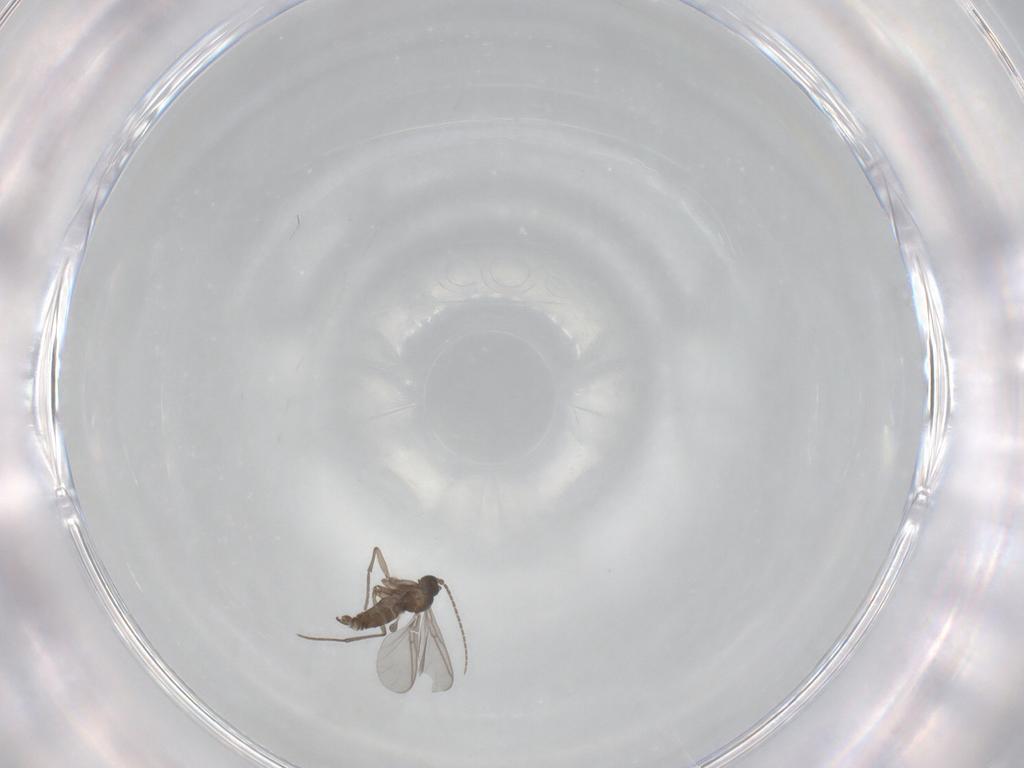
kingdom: Animalia
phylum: Arthropoda
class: Insecta
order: Diptera
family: Sciaridae
